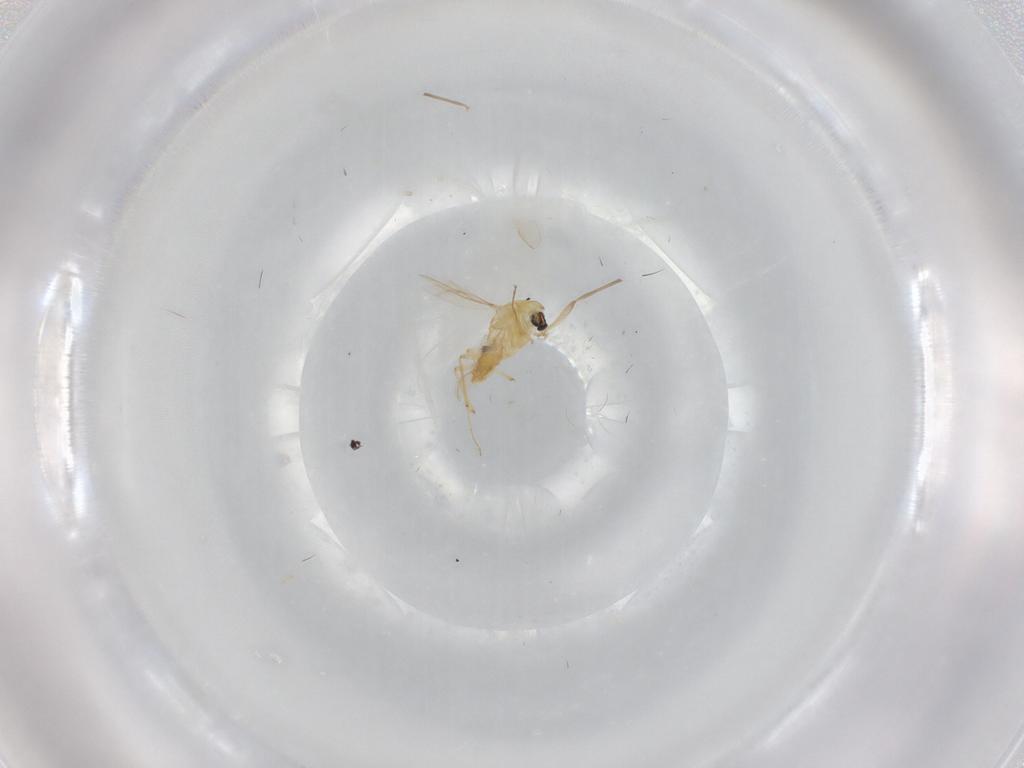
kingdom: Animalia
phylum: Arthropoda
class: Insecta
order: Diptera
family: Chironomidae
